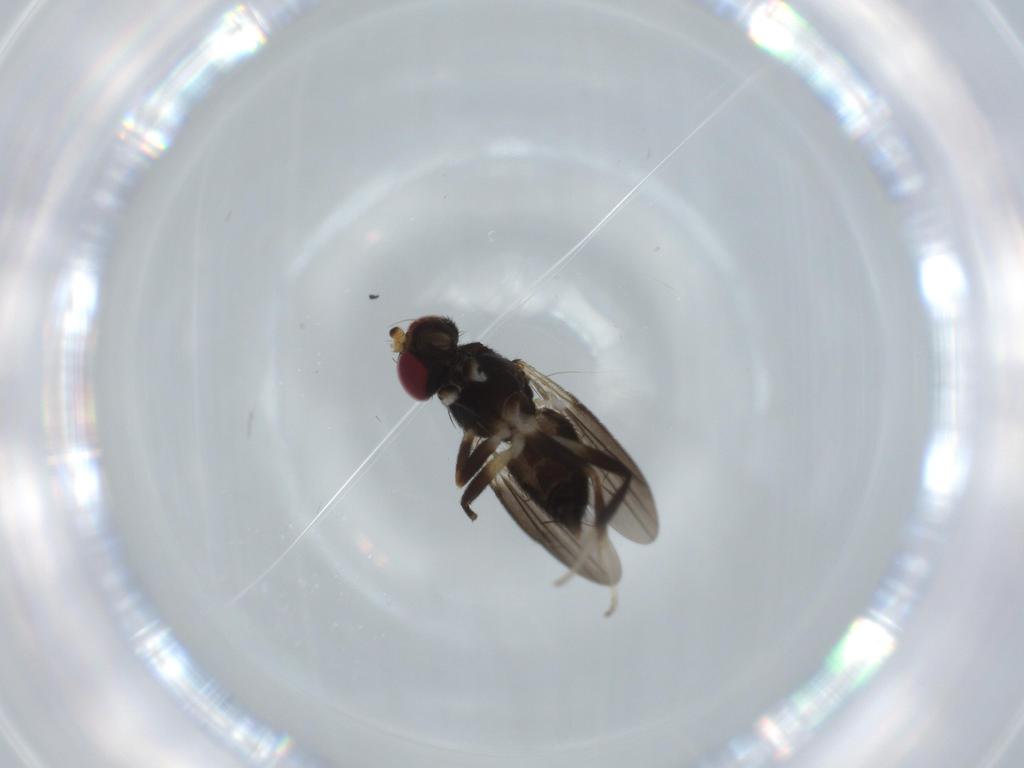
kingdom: Animalia
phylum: Arthropoda
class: Insecta
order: Diptera
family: Clusiidae
